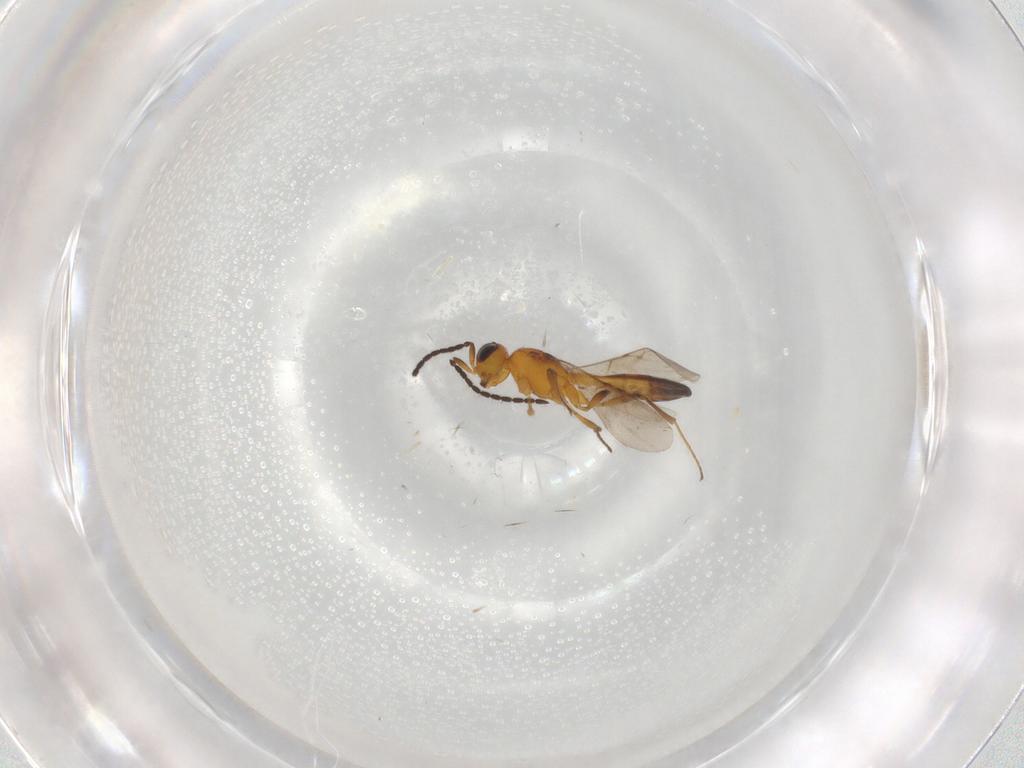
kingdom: Animalia
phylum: Arthropoda
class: Insecta
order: Hymenoptera
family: Scelionidae
